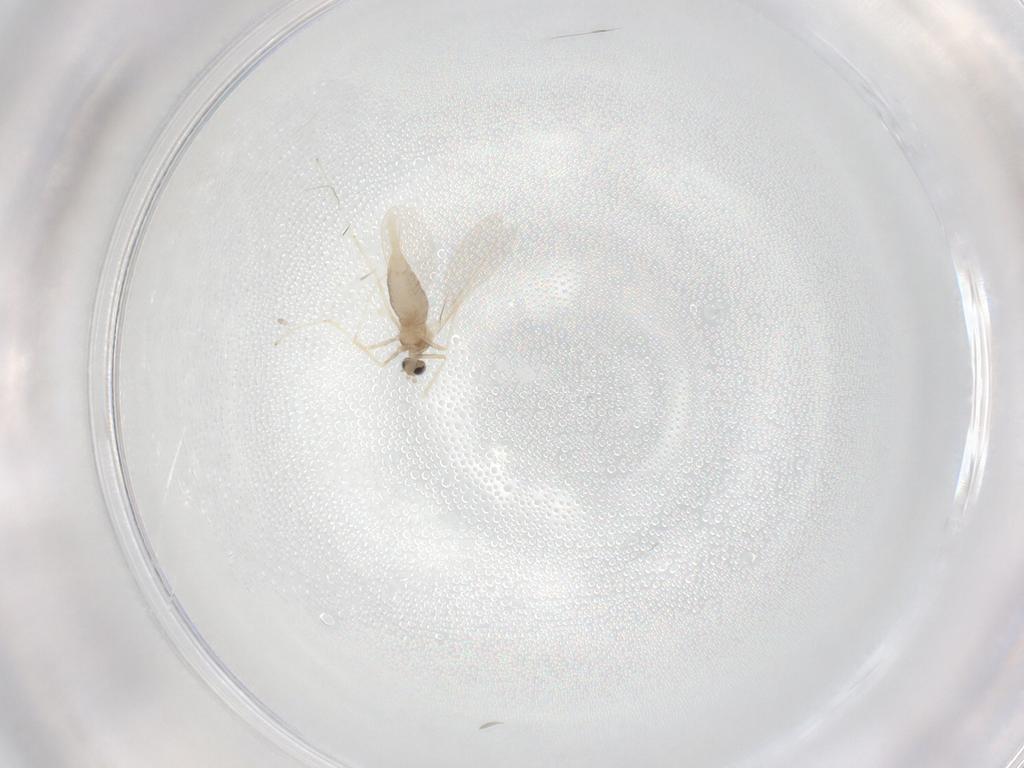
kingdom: Animalia
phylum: Arthropoda
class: Insecta
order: Diptera
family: Cecidomyiidae
